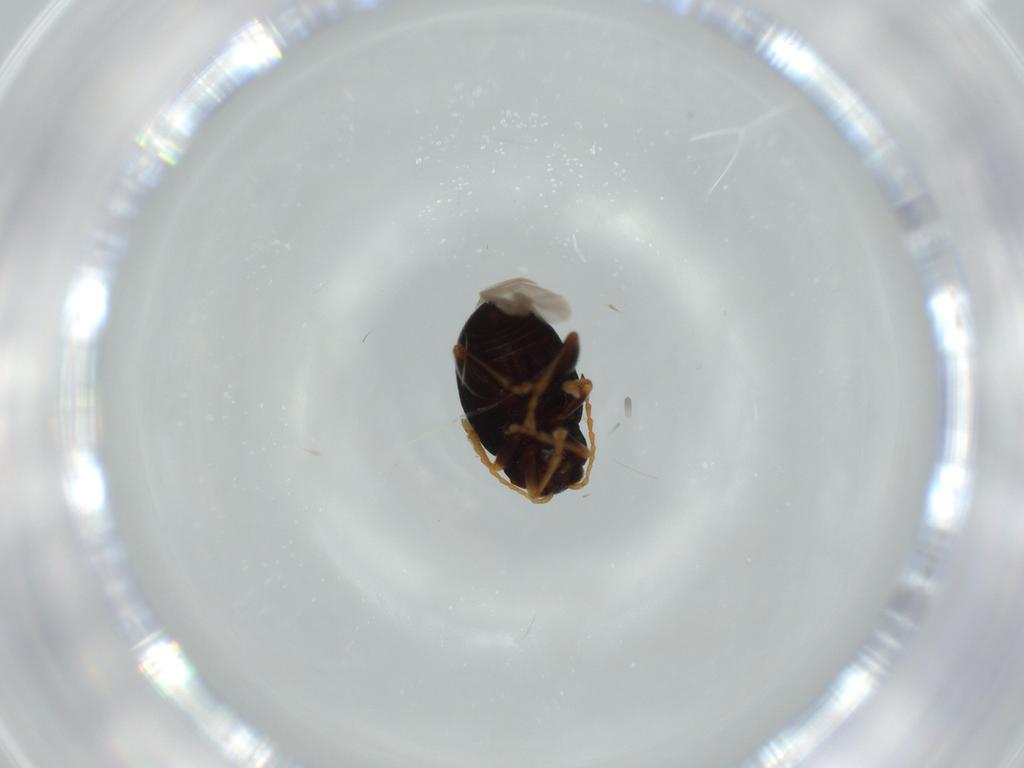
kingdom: Animalia
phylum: Arthropoda
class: Insecta
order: Coleoptera
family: Chrysomelidae
